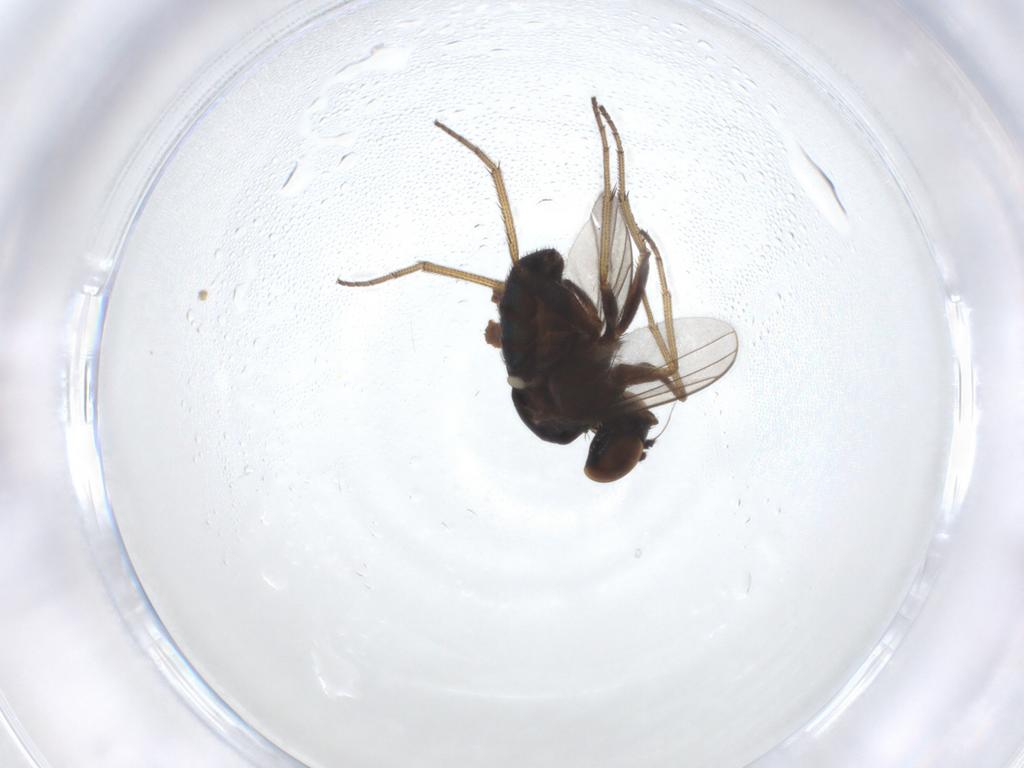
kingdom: Animalia
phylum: Arthropoda
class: Insecta
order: Diptera
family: Dolichopodidae
